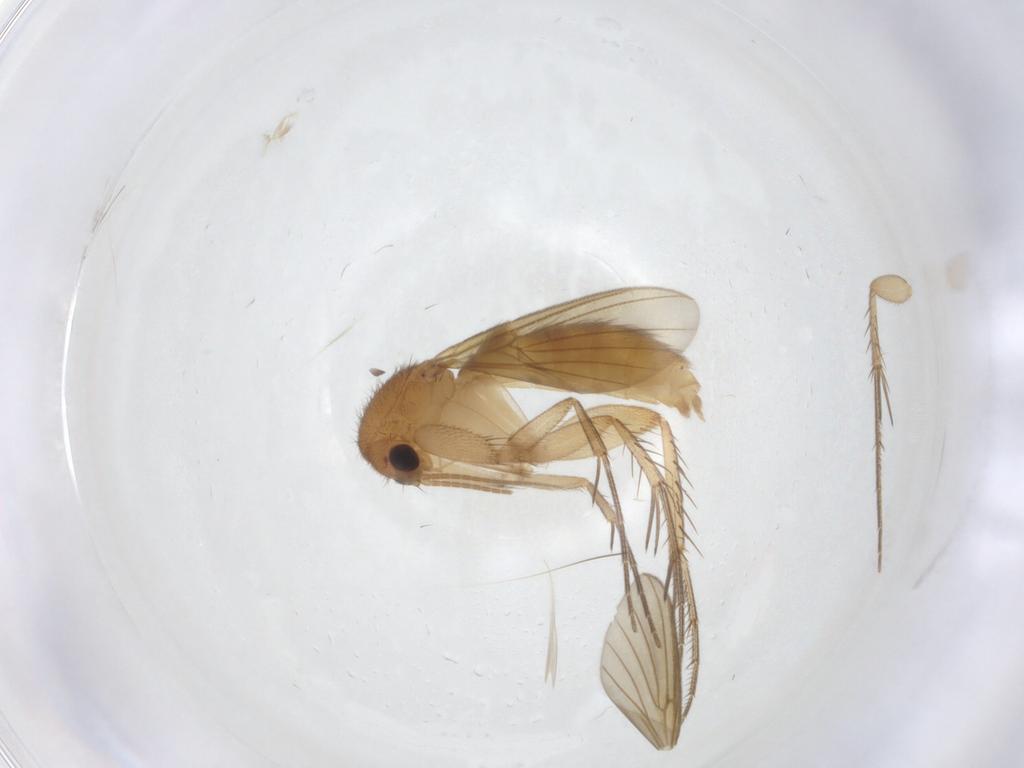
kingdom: Animalia
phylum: Arthropoda
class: Insecta
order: Diptera
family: Mycetophilidae
